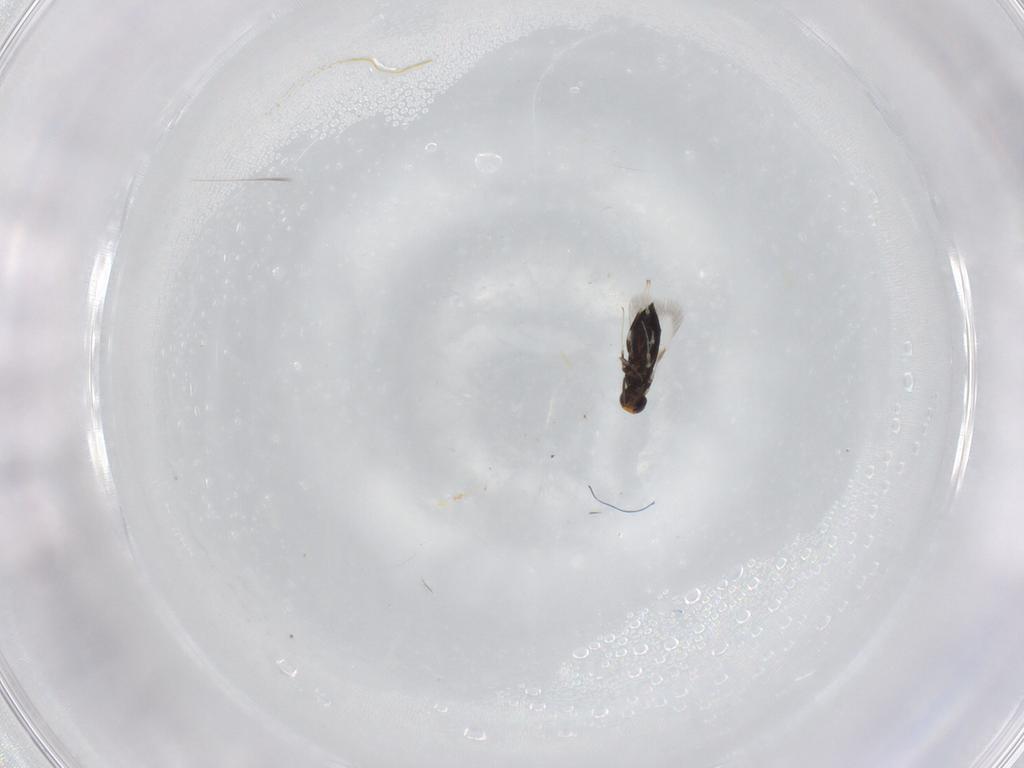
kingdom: Animalia
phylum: Arthropoda
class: Insecta
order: Hymenoptera
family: Signiphoridae
